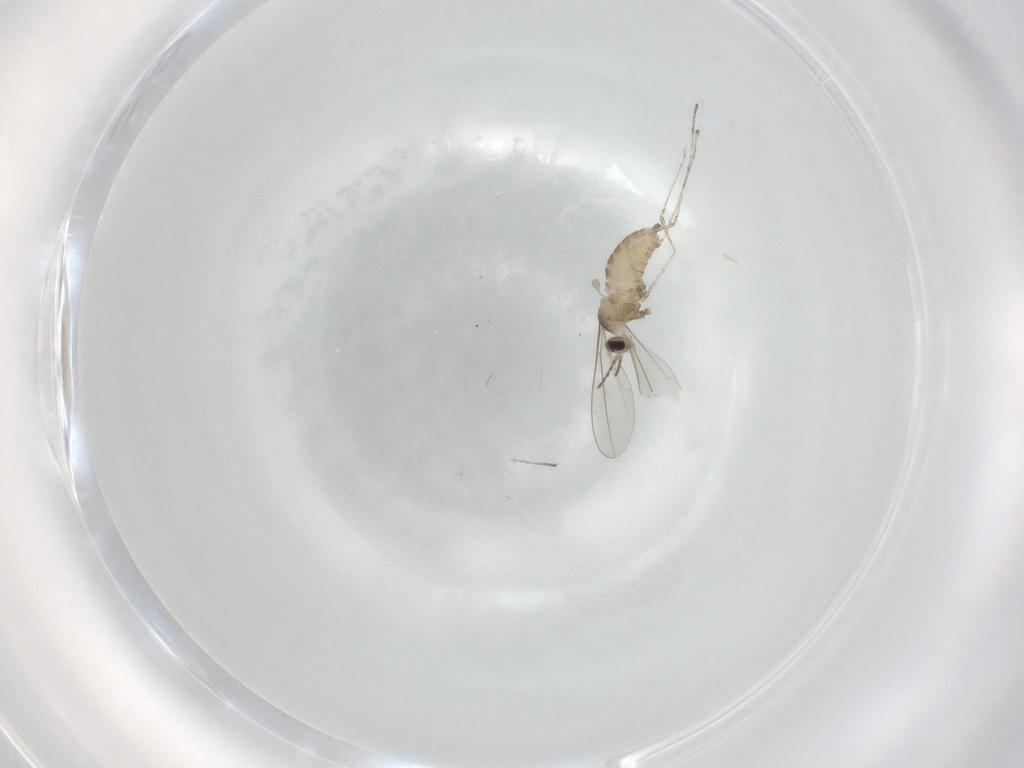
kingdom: Animalia
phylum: Arthropoda
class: Insecta
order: Diptera
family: Cecidomyiidae
